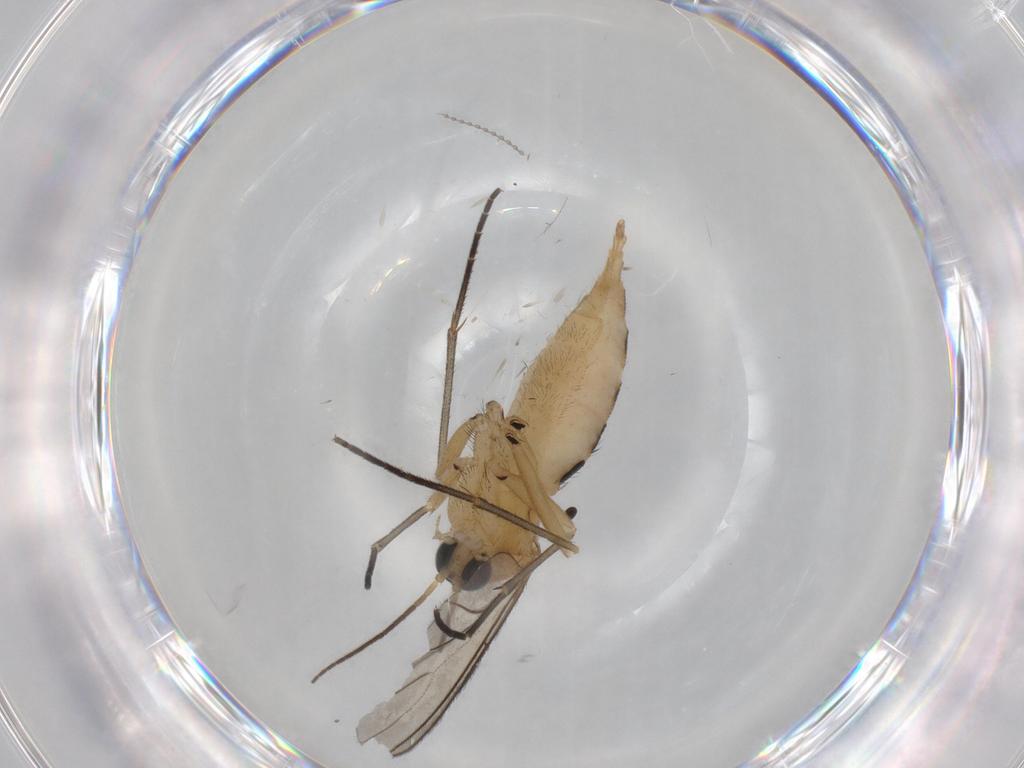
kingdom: Animalia
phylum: Arthropoda
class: Insecta
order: Diptera
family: Sciaridae
